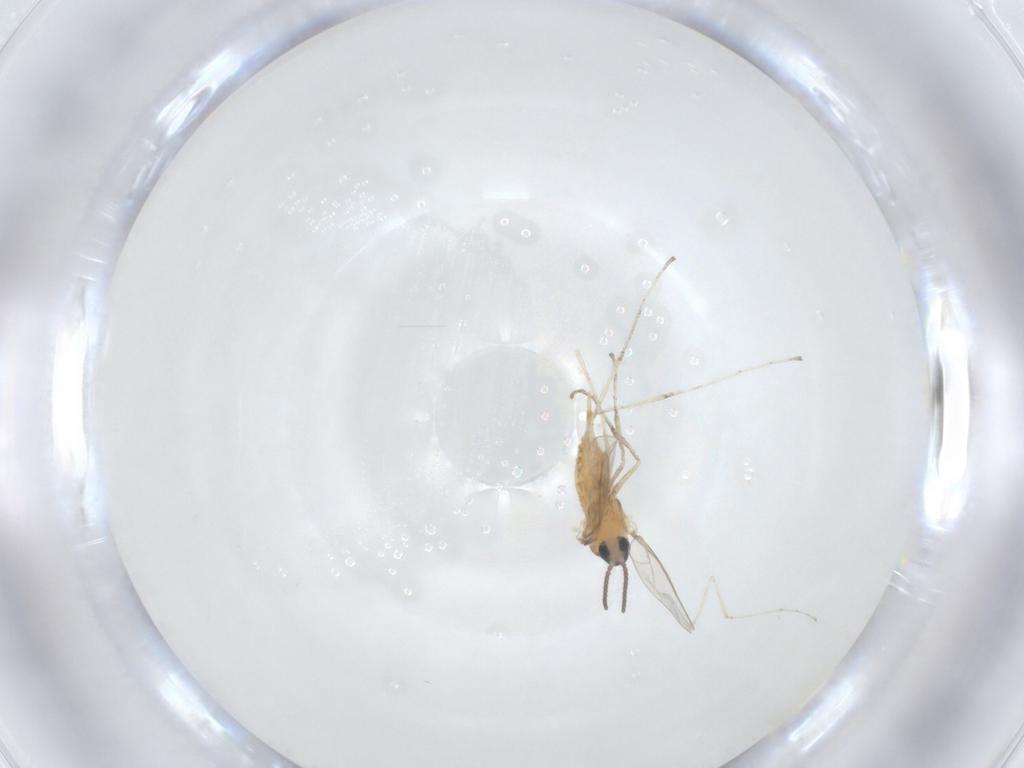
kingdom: Animalia
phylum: Arthropoda
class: Insecta
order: Diptera
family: Cecidomyiidae
